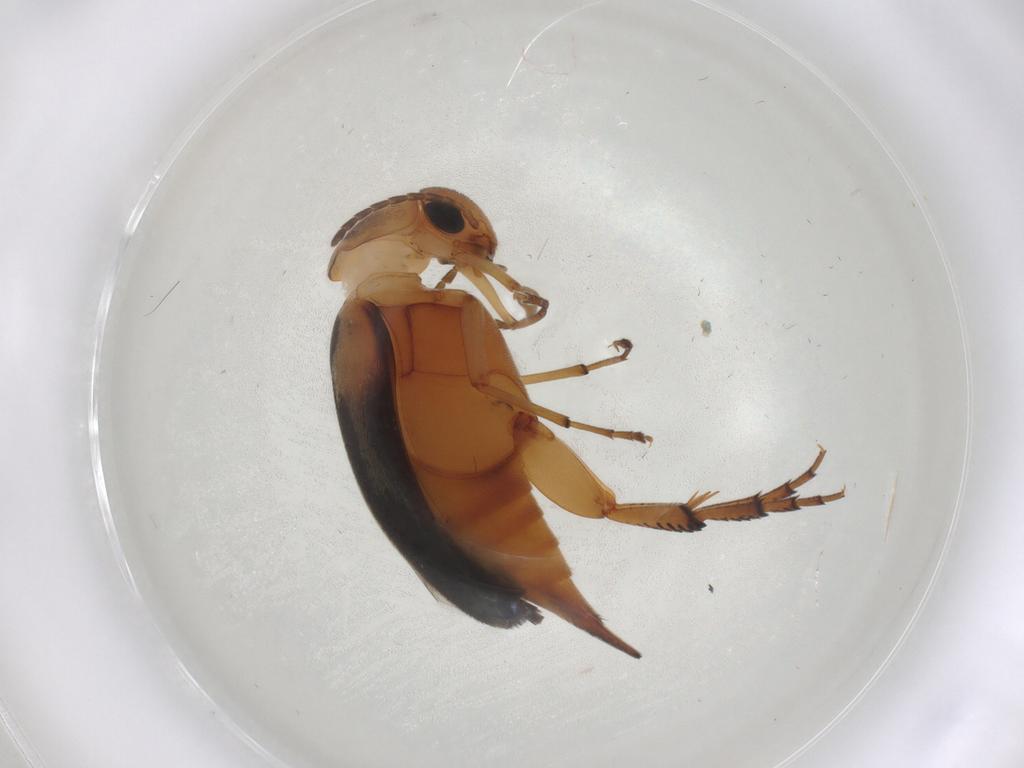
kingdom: Animalia
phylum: Arthropoda
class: Insecta
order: Coleoptera
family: Mordellidae
